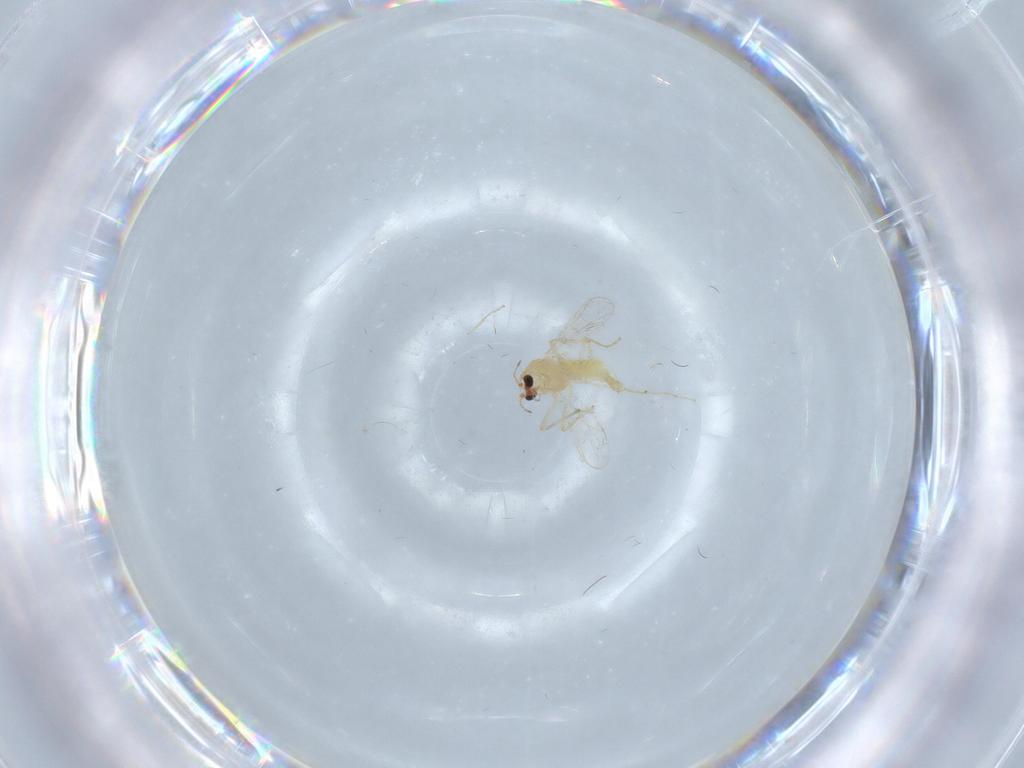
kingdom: Animalia
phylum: Arthropoda
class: Insecta
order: Diptera
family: Chironomidae
